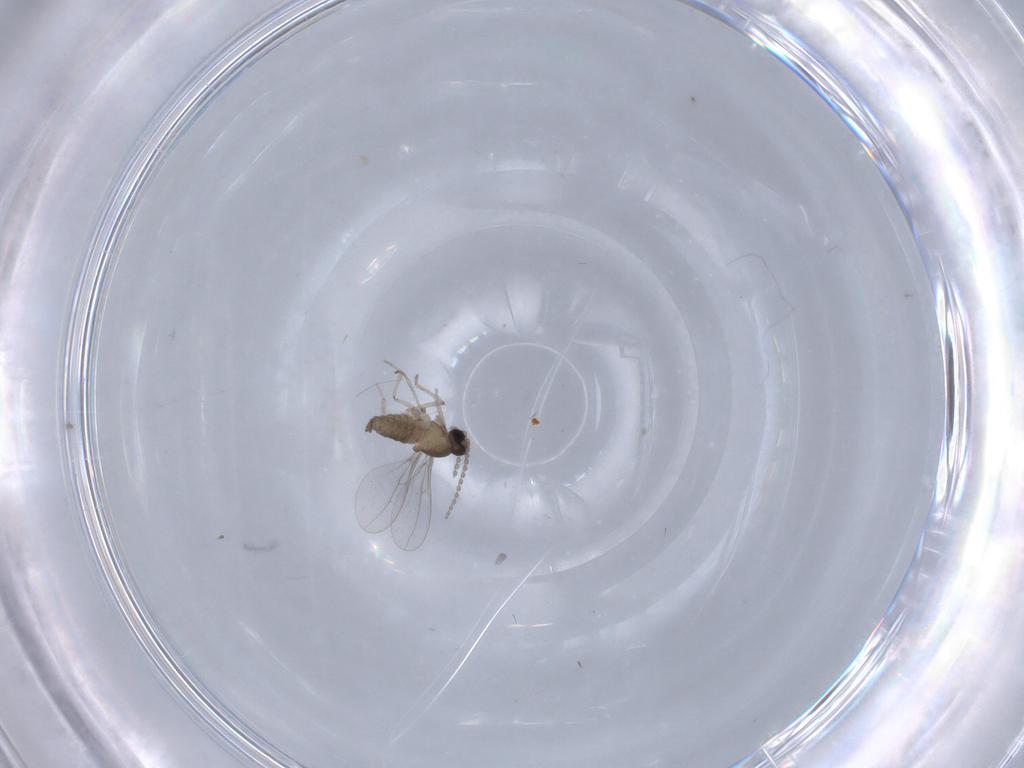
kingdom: Animalia
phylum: Arthropoda
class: Insecta
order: Diptera
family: Cecidomyiidae
